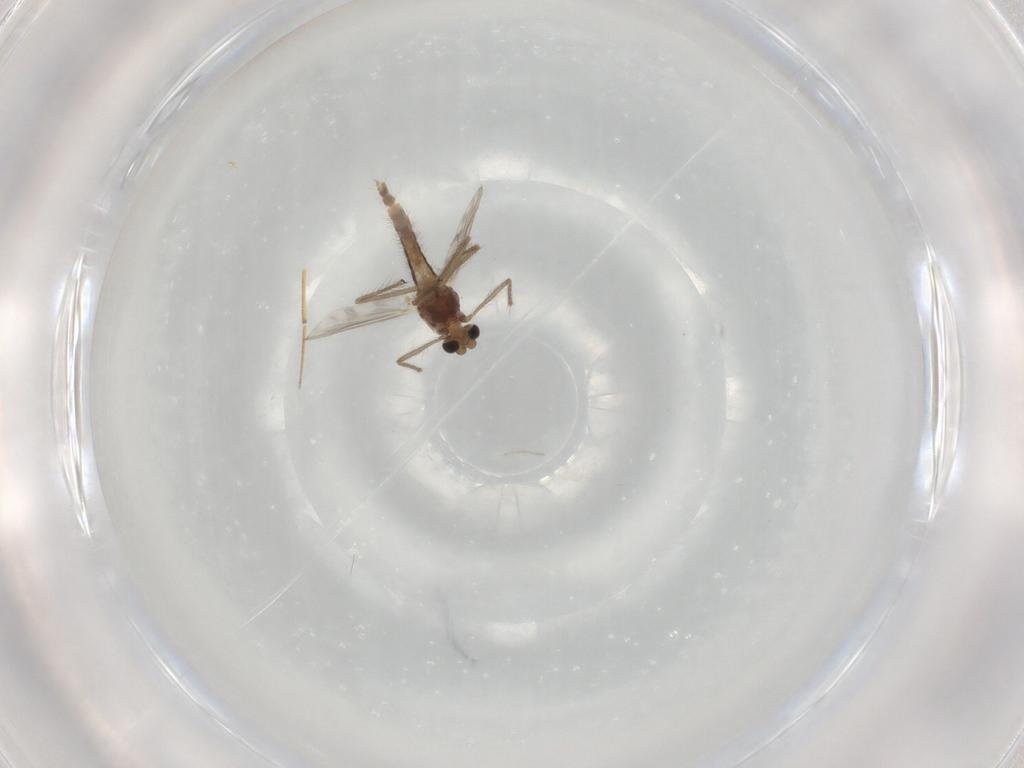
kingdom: Animalia
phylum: Arthropoda
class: Insecta
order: Diptera
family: Chironomidae
